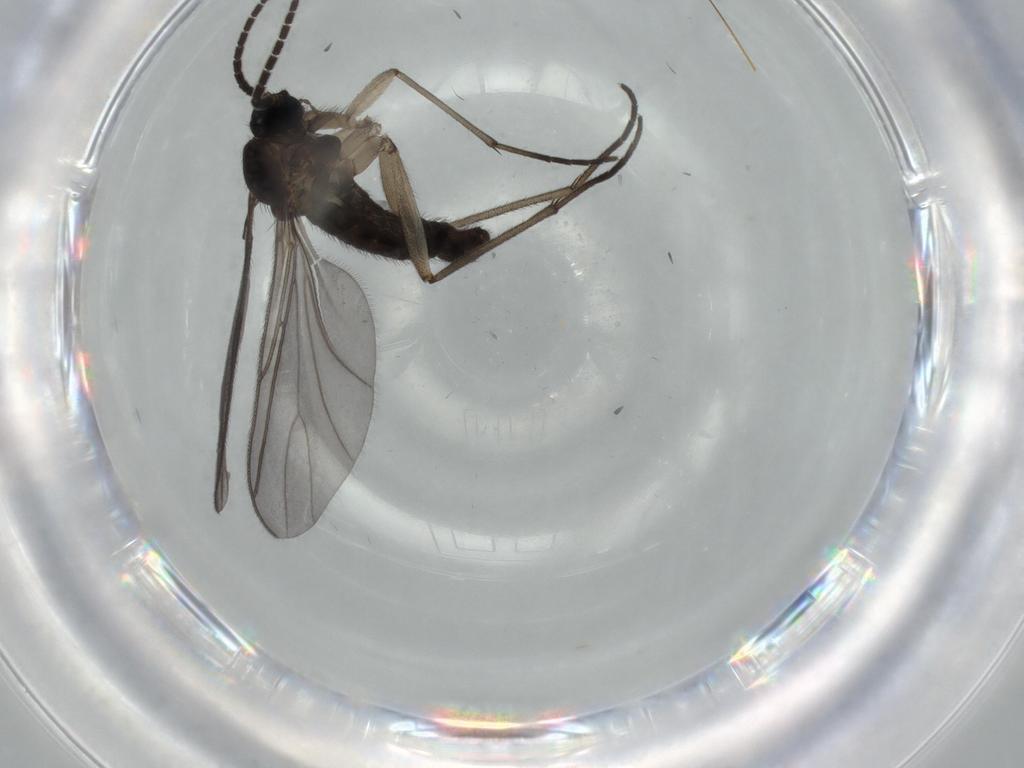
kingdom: Animalia
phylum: Arthropoda
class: Insecta
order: Diptera
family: Sciaridae
